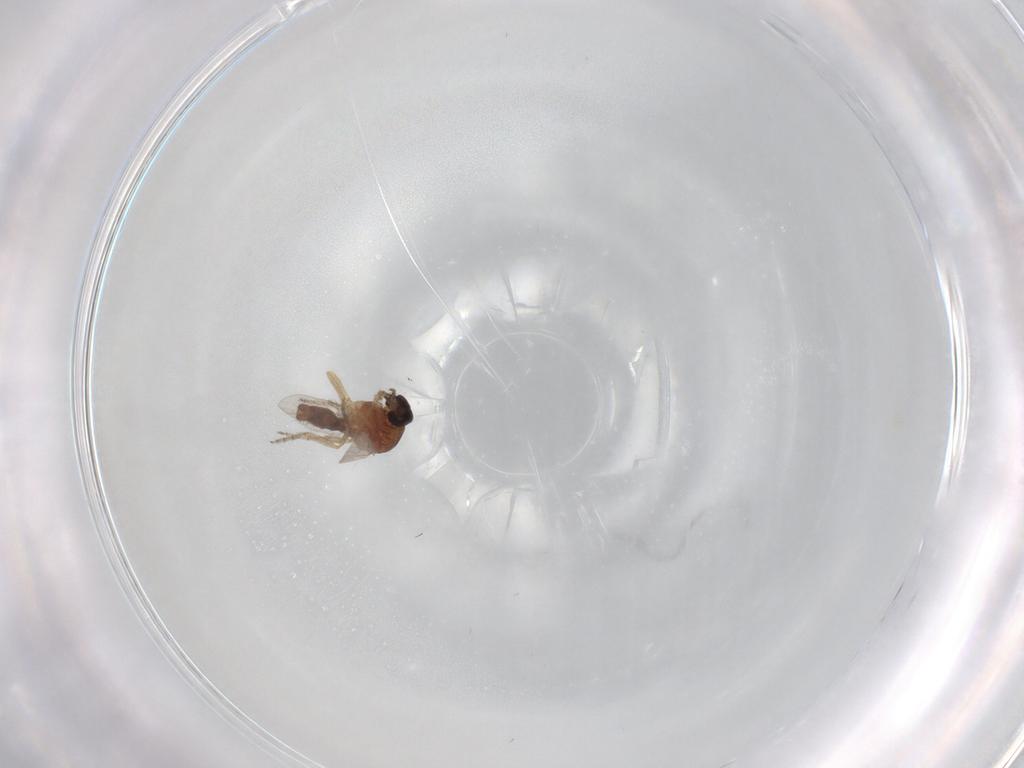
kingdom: Animalia
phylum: Arthropoda
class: Insecta
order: Diptera
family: Ceratopogonidae
